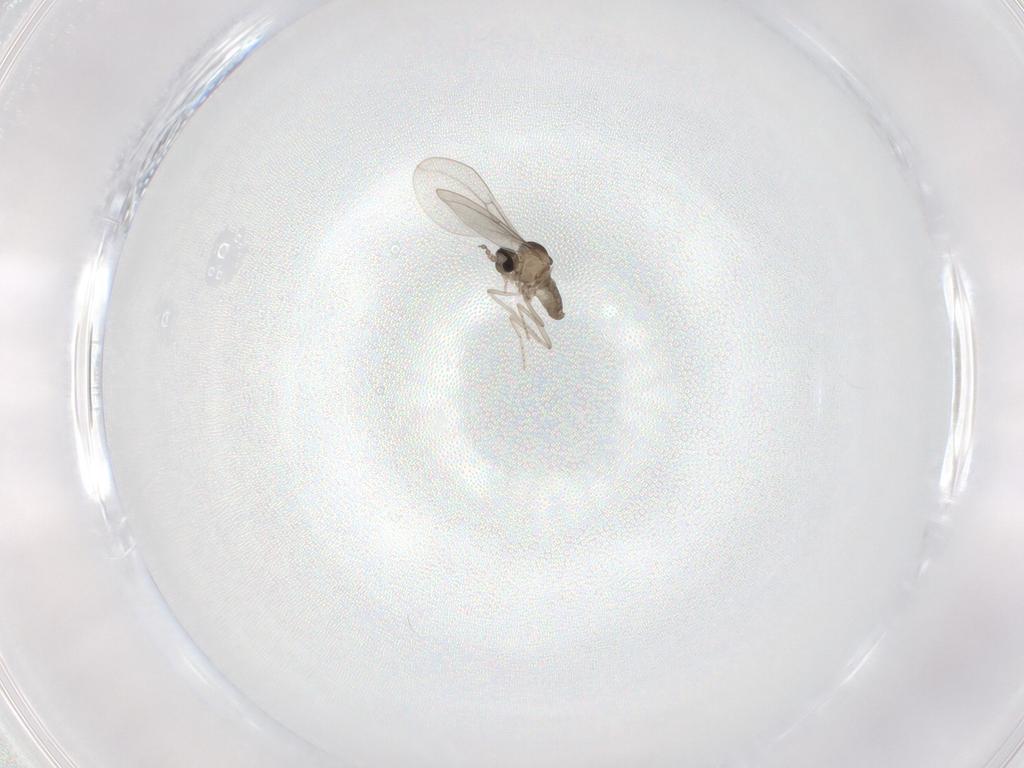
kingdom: Animalia
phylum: Arthropoda
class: Insecta
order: Diptera
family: Cecidomyiidae
